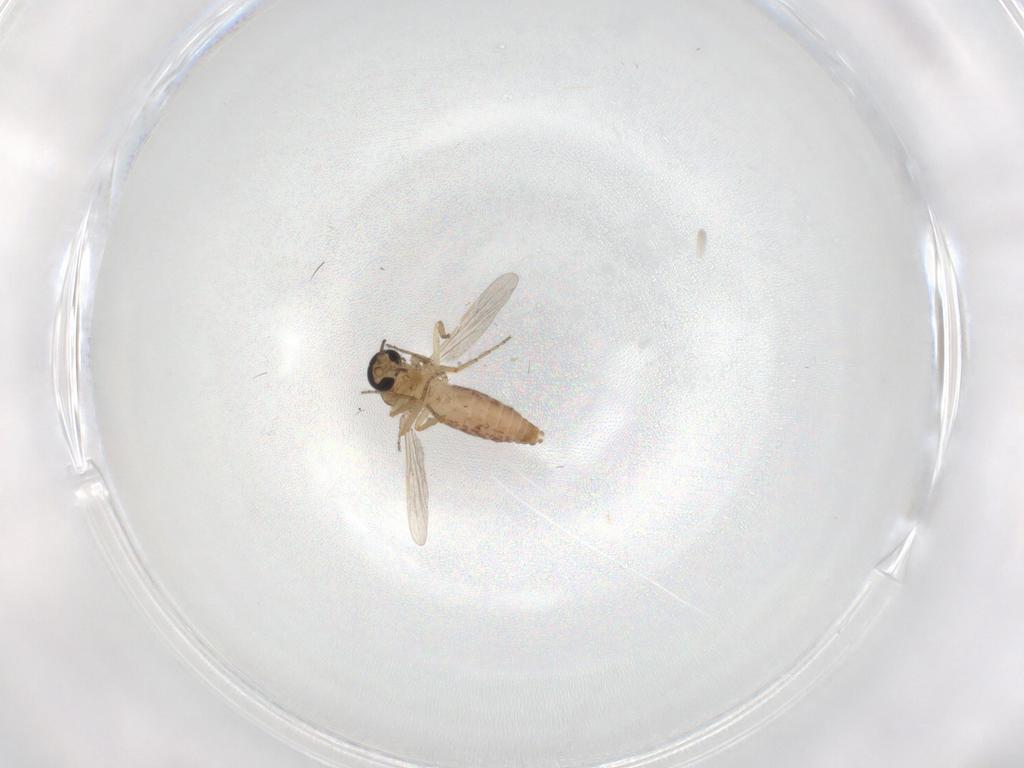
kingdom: Animalia
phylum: Arthropoda
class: Insecta
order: Diptera
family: Ceratopogonidae
